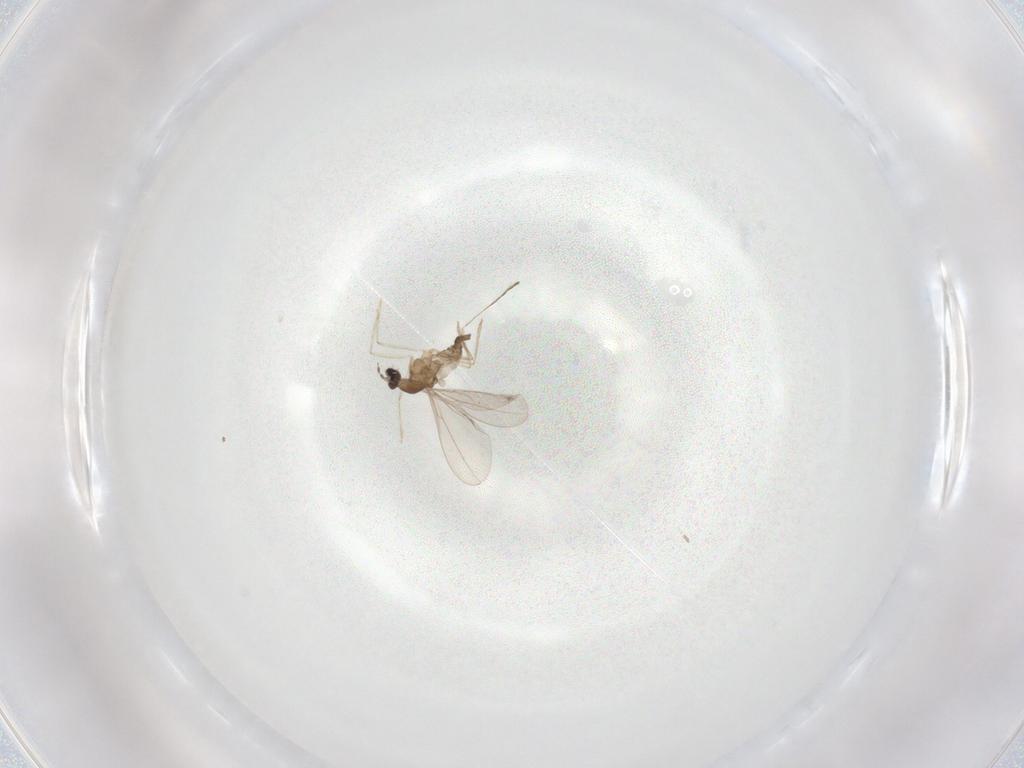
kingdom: Animalia
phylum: Arthropoda
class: Insecta
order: Diptera
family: Cecidomyiidae
